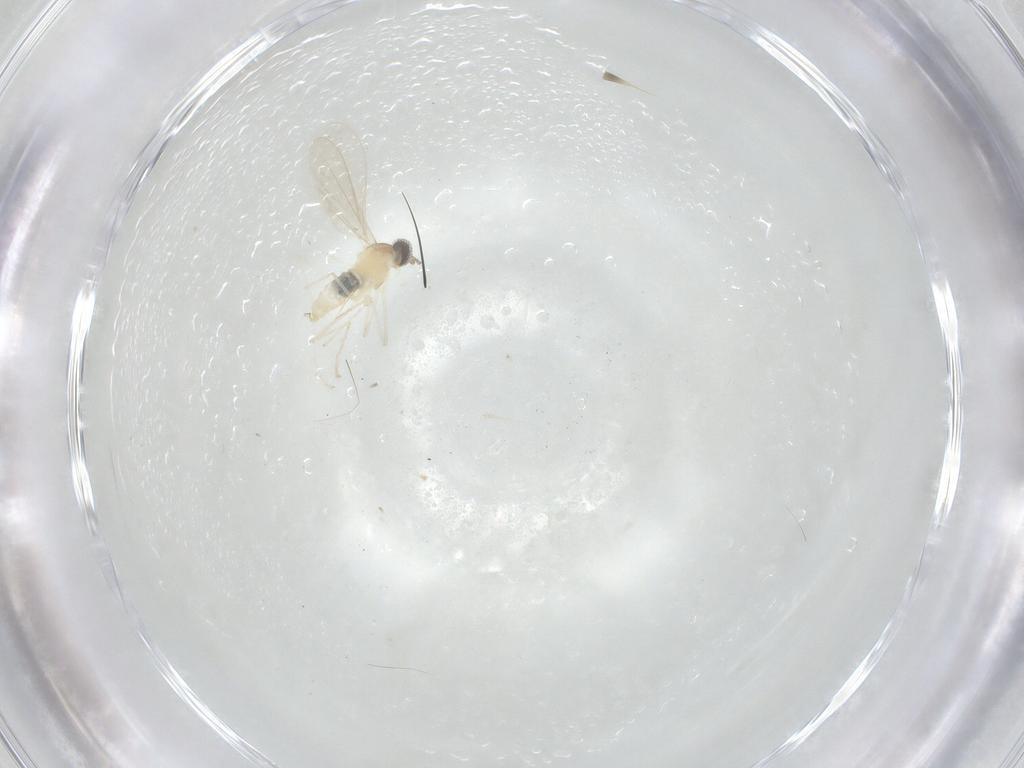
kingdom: Animalia
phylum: Arthropoda
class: Insecta
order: Diptera
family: Cecidomyiidae
